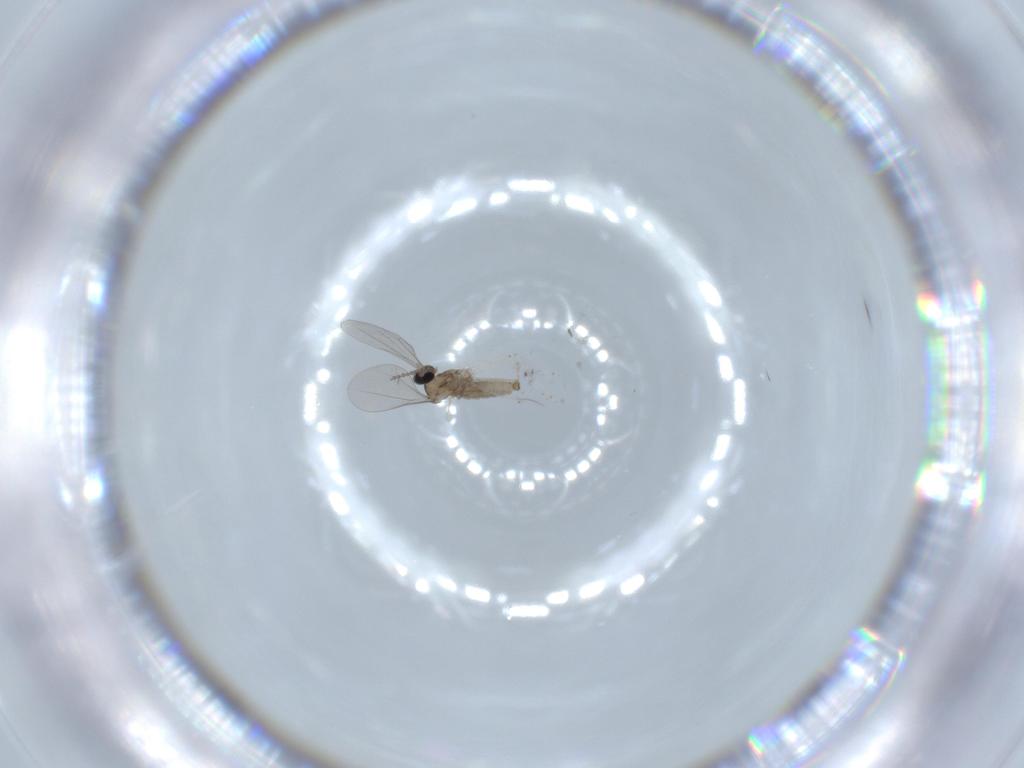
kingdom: Animalia
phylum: Arthropoda
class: Insecta
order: Diptera
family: Cecidomyiidae
